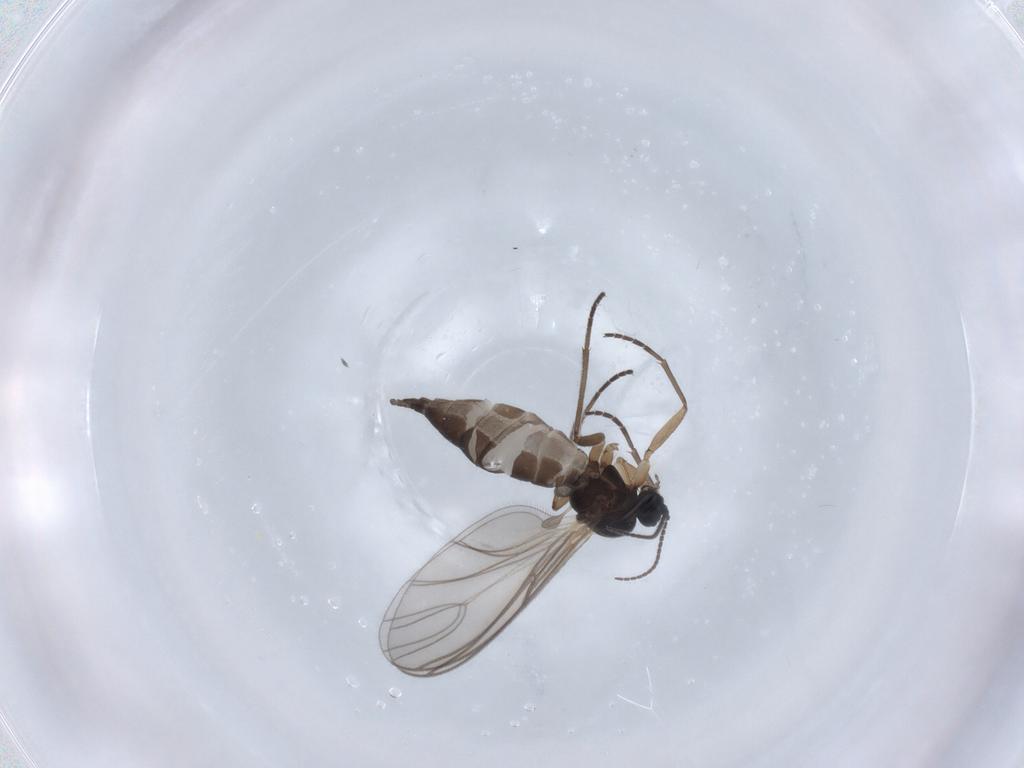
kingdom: Animalia
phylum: Arthropoda
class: Insecta
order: Diptera
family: Sciaridae
